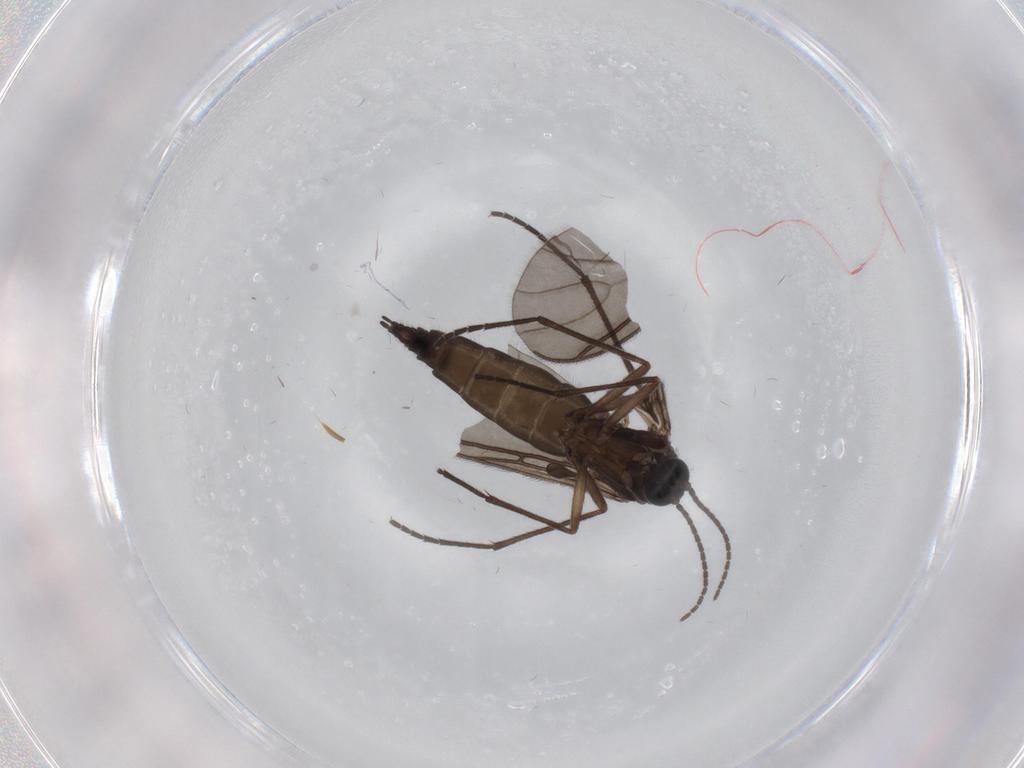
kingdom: Animalia
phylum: Arthropoda
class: Insecta
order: Diptera
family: Sciaridae
